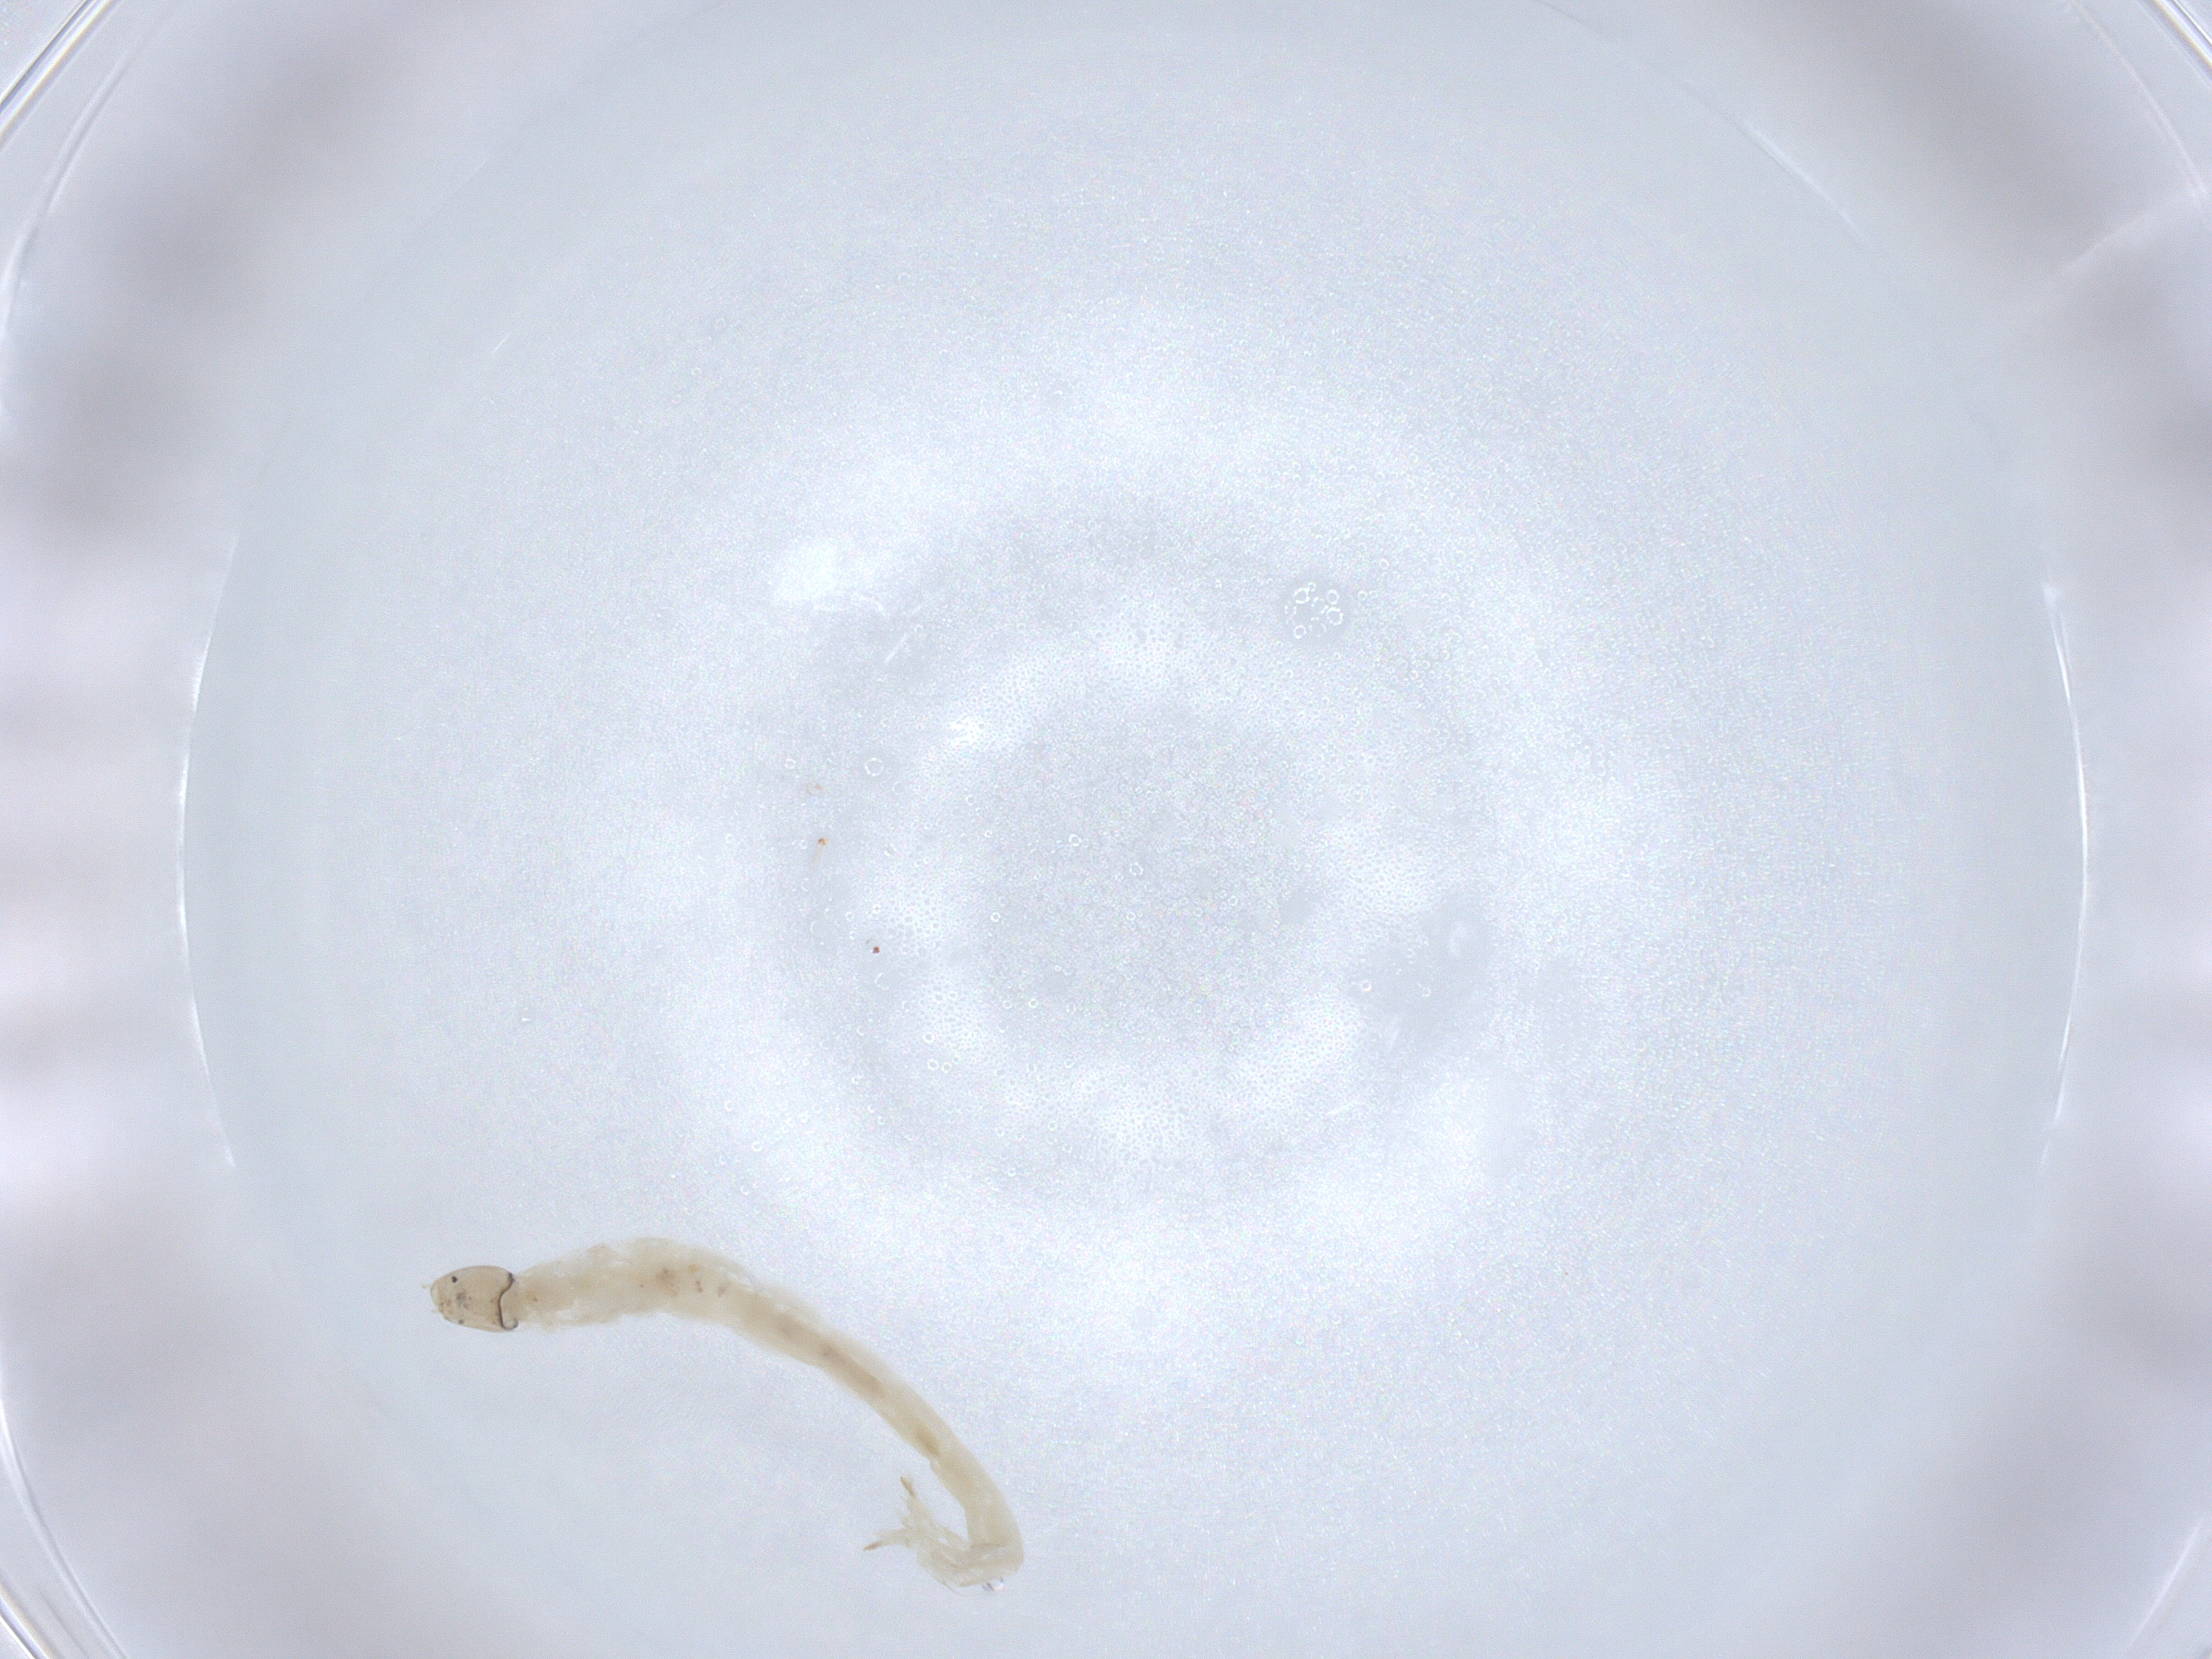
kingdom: Animalia
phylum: Arthropoda
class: Insecta
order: Diptera
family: Chironomidae
